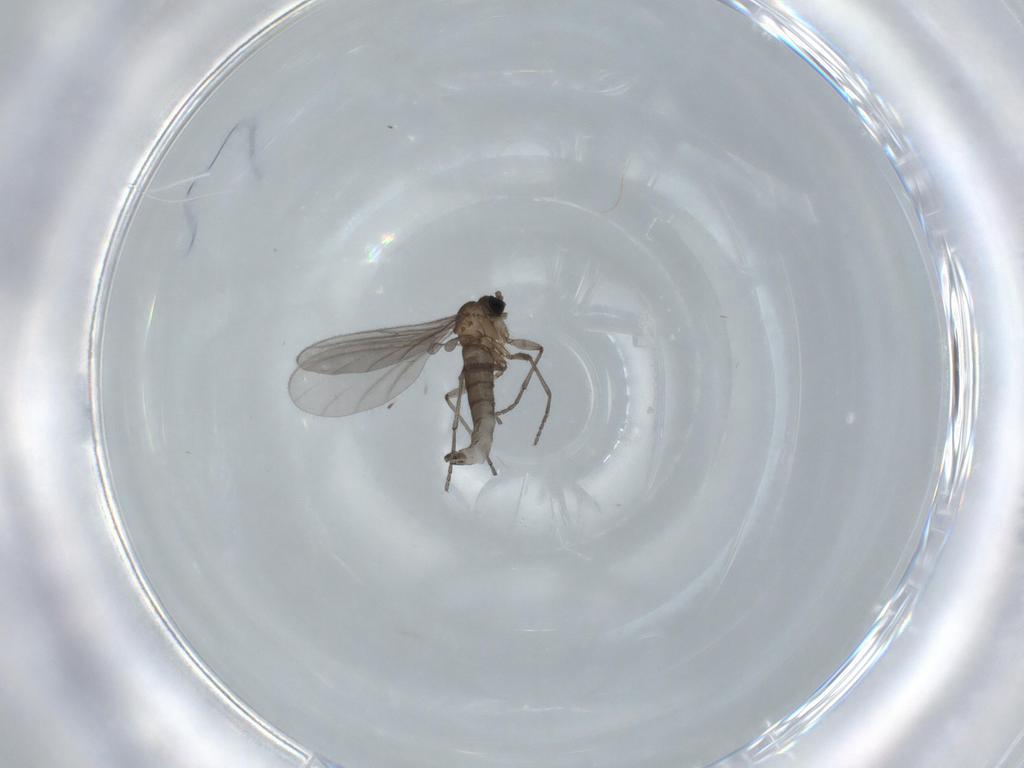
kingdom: Animalia
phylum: Arthropoda
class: Insecta
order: Diptera
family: Sciaridae
